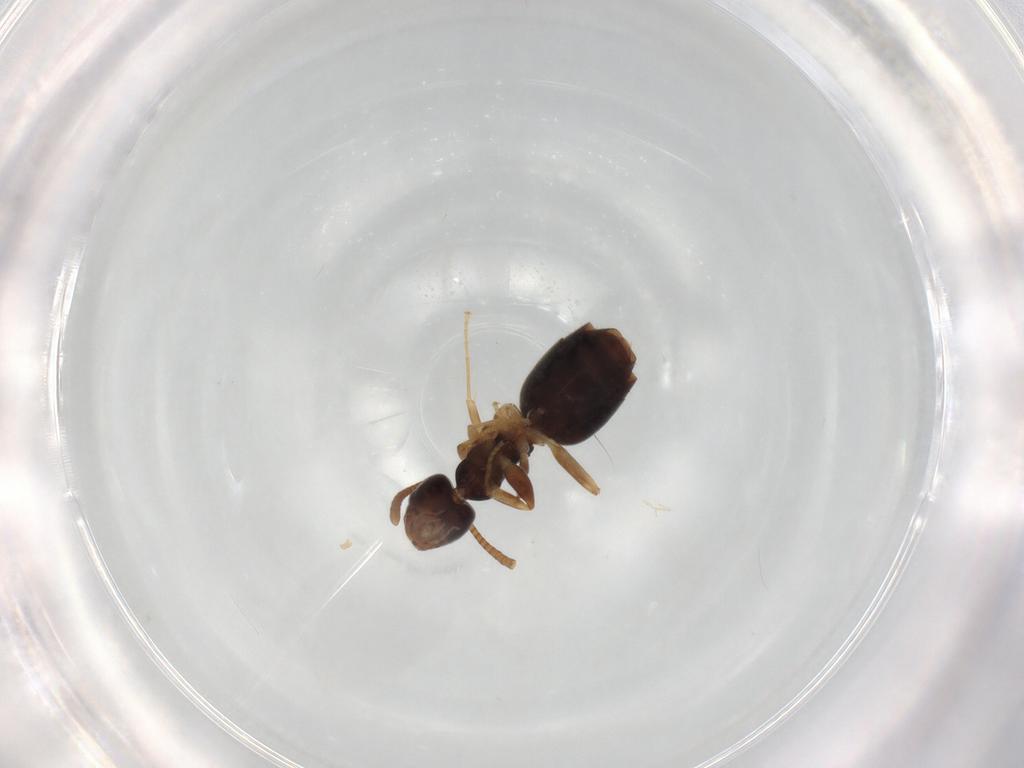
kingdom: Animalia
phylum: Arthropoda
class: Insecta
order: Hymenoptera
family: Formicidae
